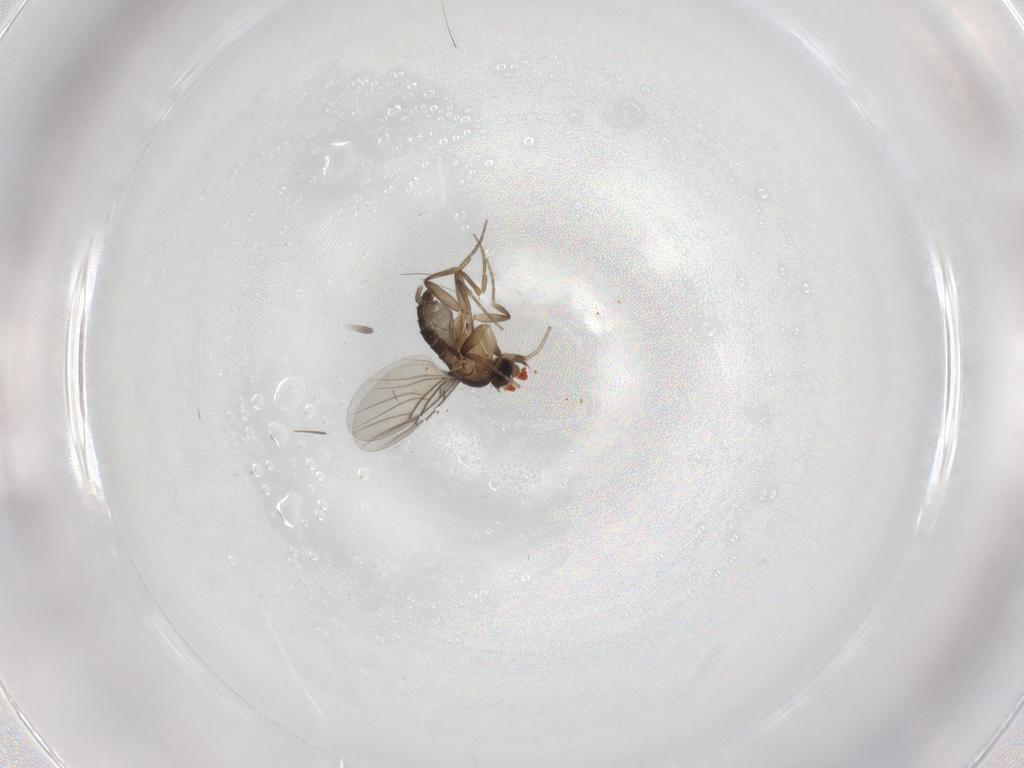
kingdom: Animalia
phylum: Arthropoda
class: Insecta
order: Diptera
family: Phoridae
